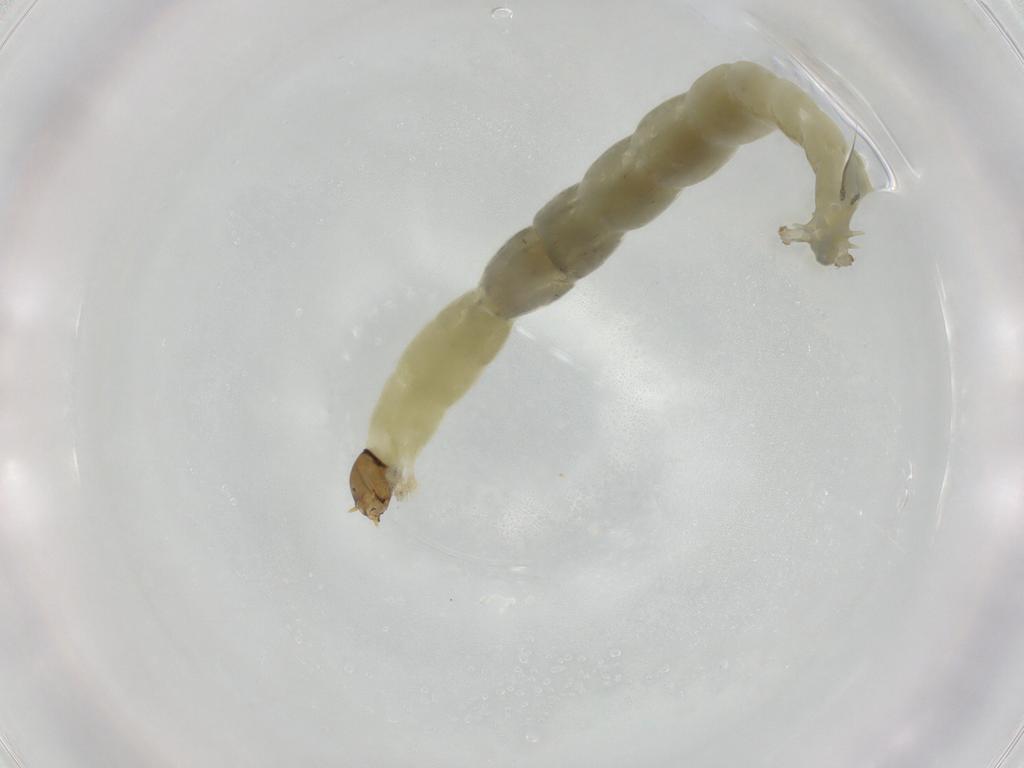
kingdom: Animalia
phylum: Arthropoda
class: Insecta
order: Diptera
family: Chironomidae
